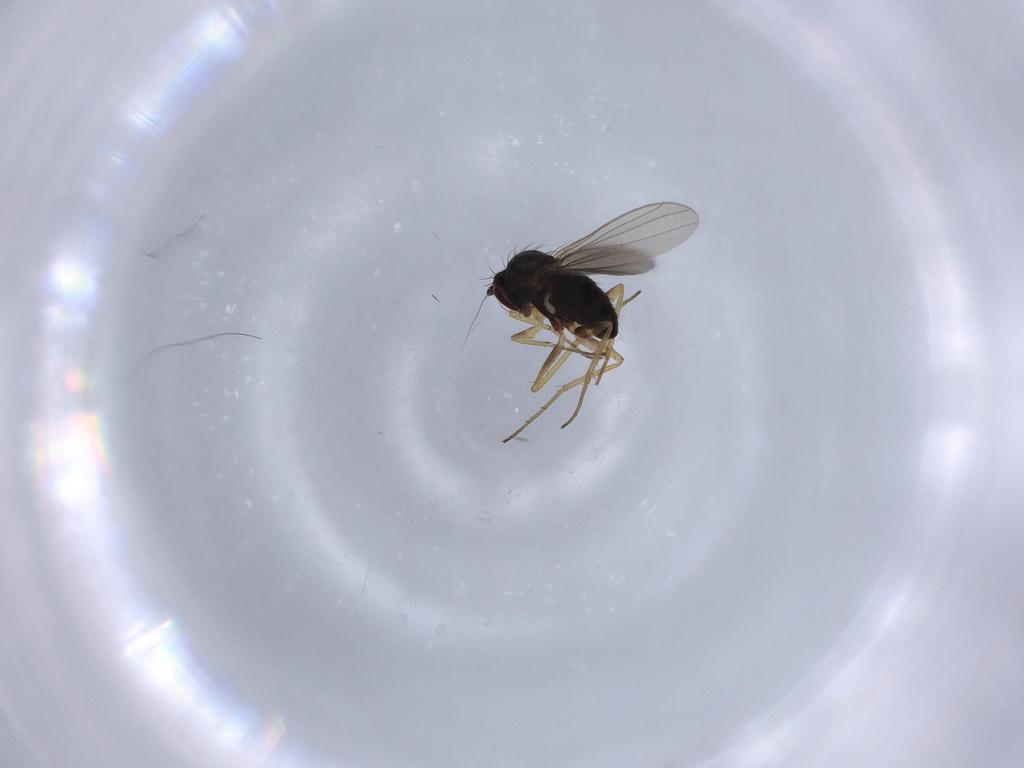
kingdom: Animalia
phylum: Arthropoda
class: Insecta
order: Diptera
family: Dolichopodidae
